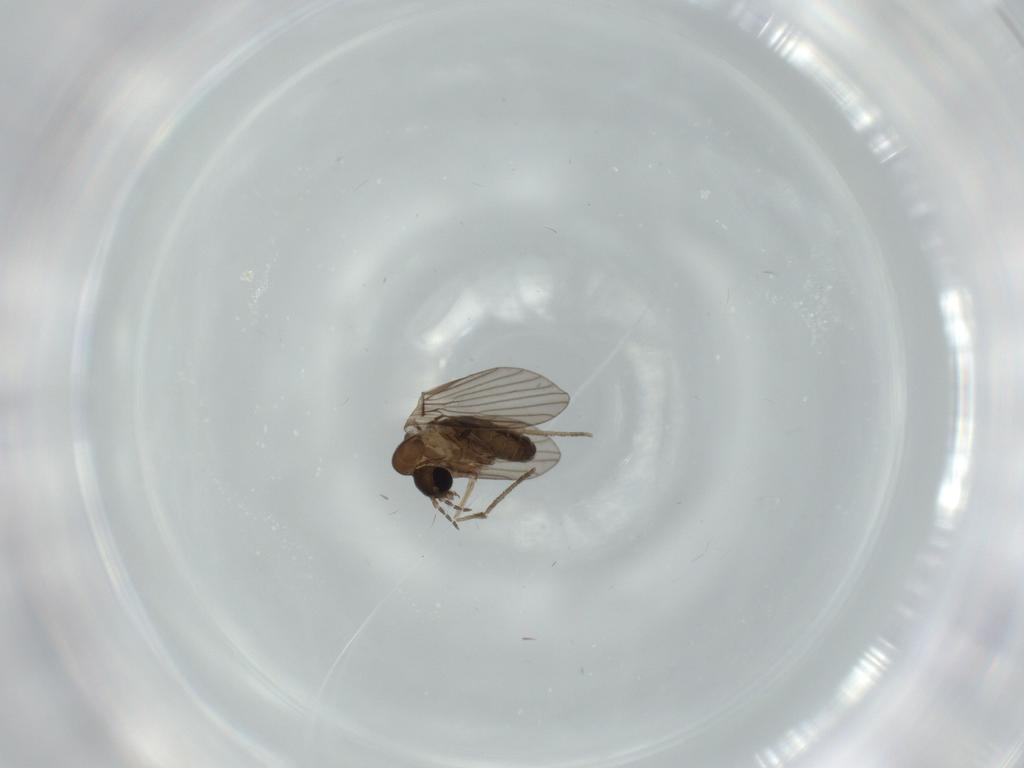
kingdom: Animalia
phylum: Arthropoda
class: Insecta
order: Diptera
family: Psychodidae
